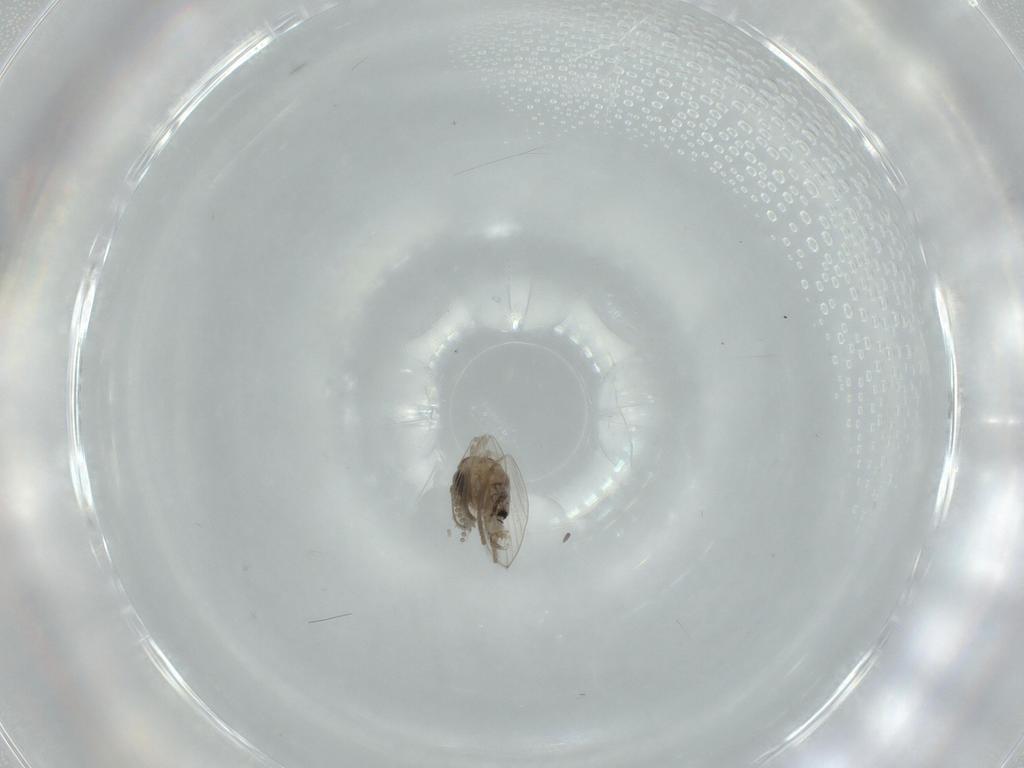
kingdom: Animalia
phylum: Arthropoda
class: Insecta
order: Diptera
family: Psychodidae
